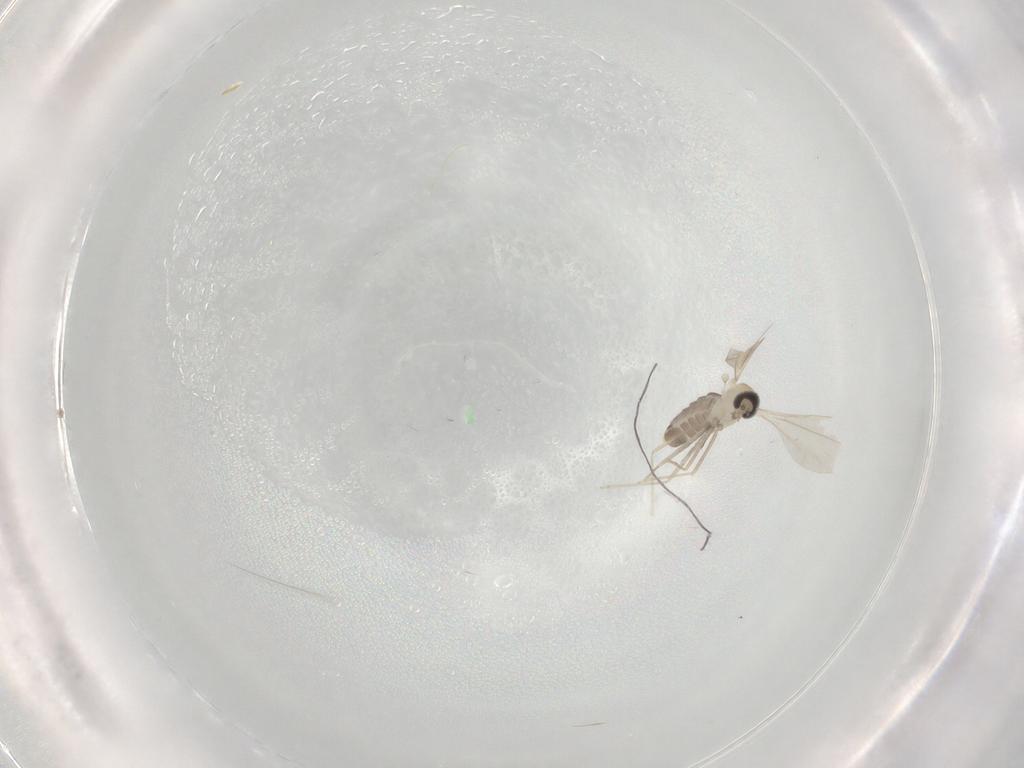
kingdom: Animalia
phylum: Arthropoda
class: Insecta
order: Diptera
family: Cecidomyiidae
